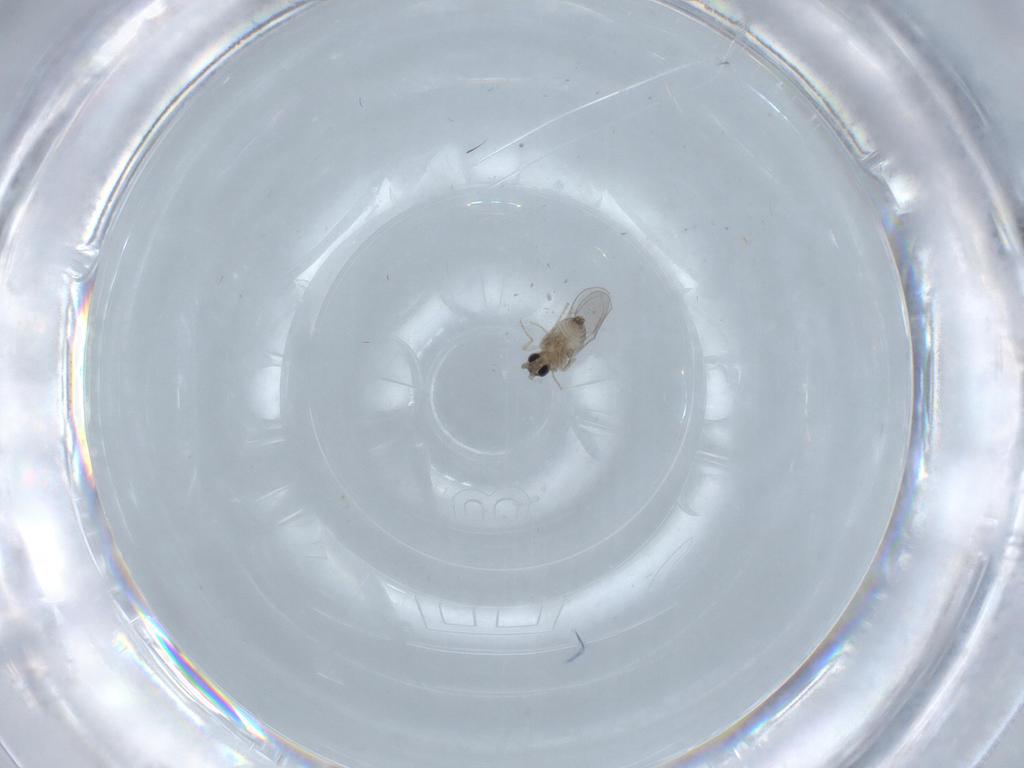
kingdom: Animalia
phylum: Arthropoda
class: Insecta
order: Diptera
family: Cecidomyiidae
